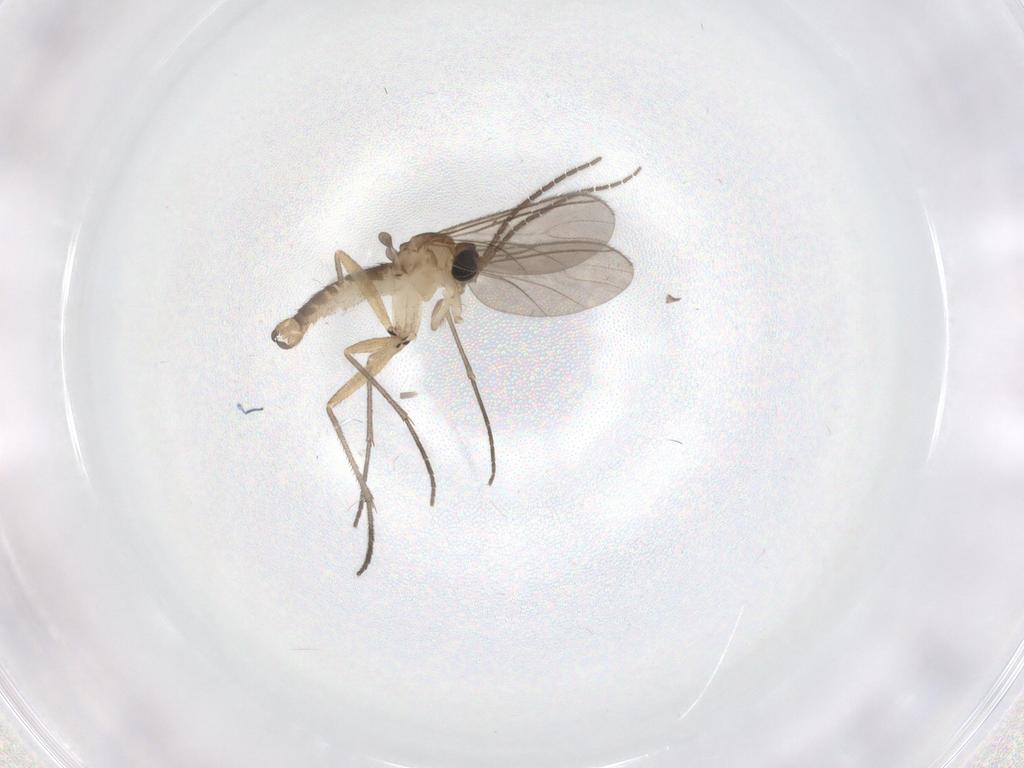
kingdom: Animalia
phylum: Arthropoda
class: Insecta
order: Diptera
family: Sciaridae
